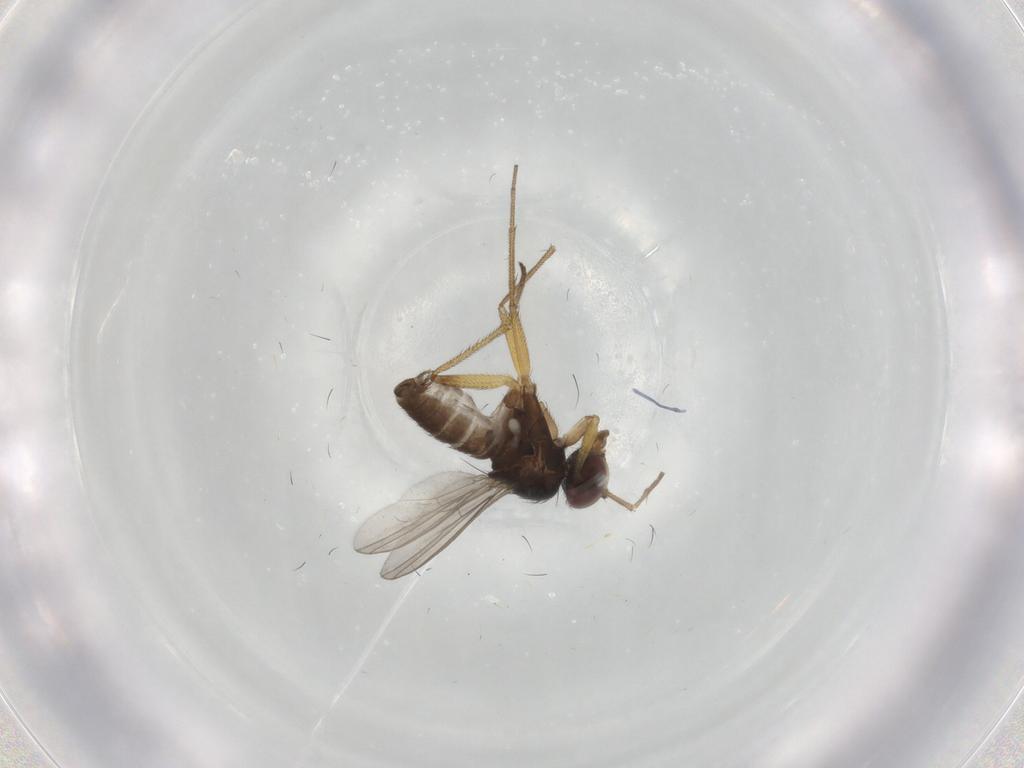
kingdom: Animalia
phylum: Arthropoda
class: Insecta
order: Diptera
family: Dolichopodidae
